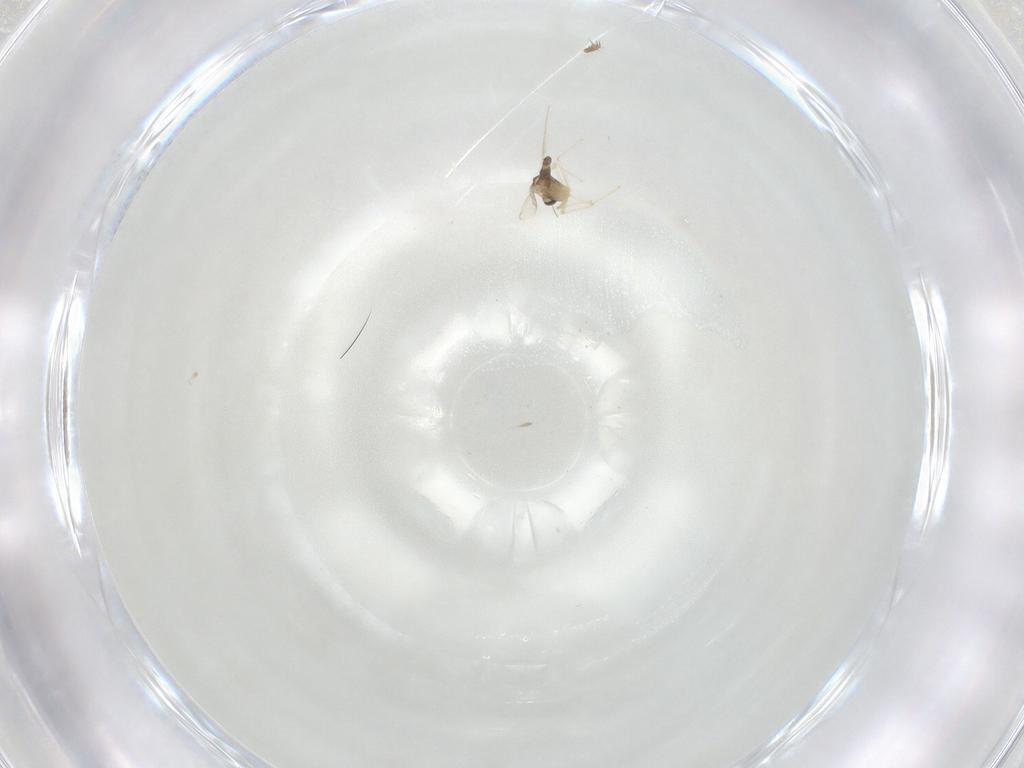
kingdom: Animalia
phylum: Arthropoda
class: Insecta
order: Diptera
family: Chironomidae
